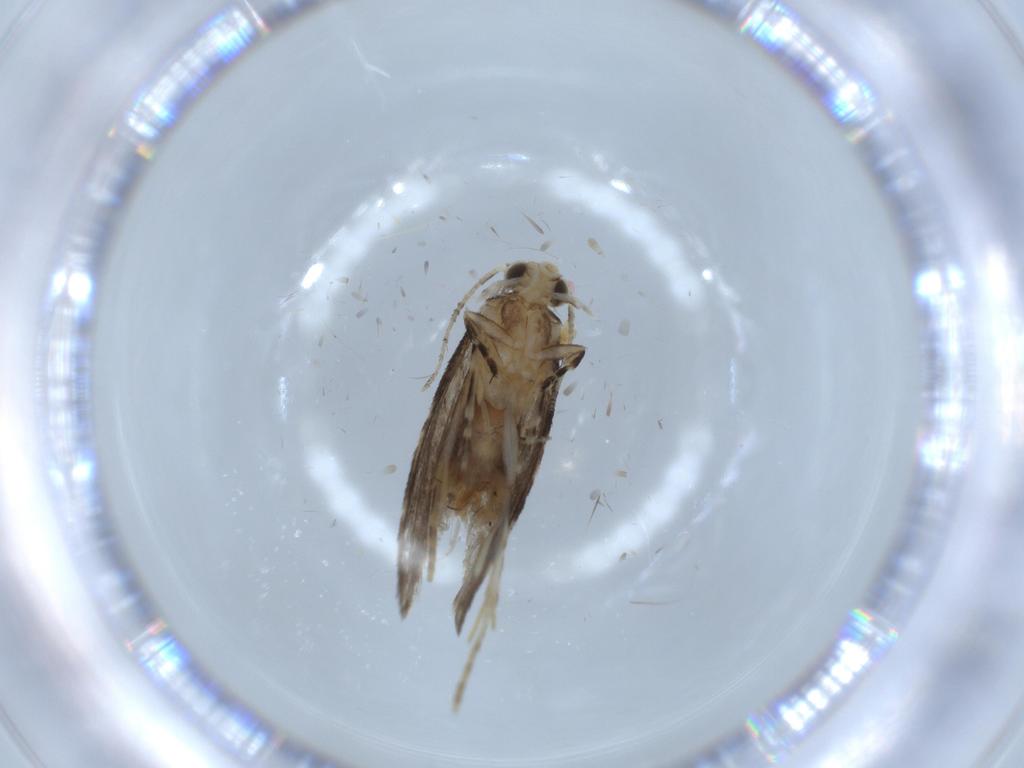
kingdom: Animalia
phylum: Arthropoda
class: Insecta
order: Lepidoptera
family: Tineidae
